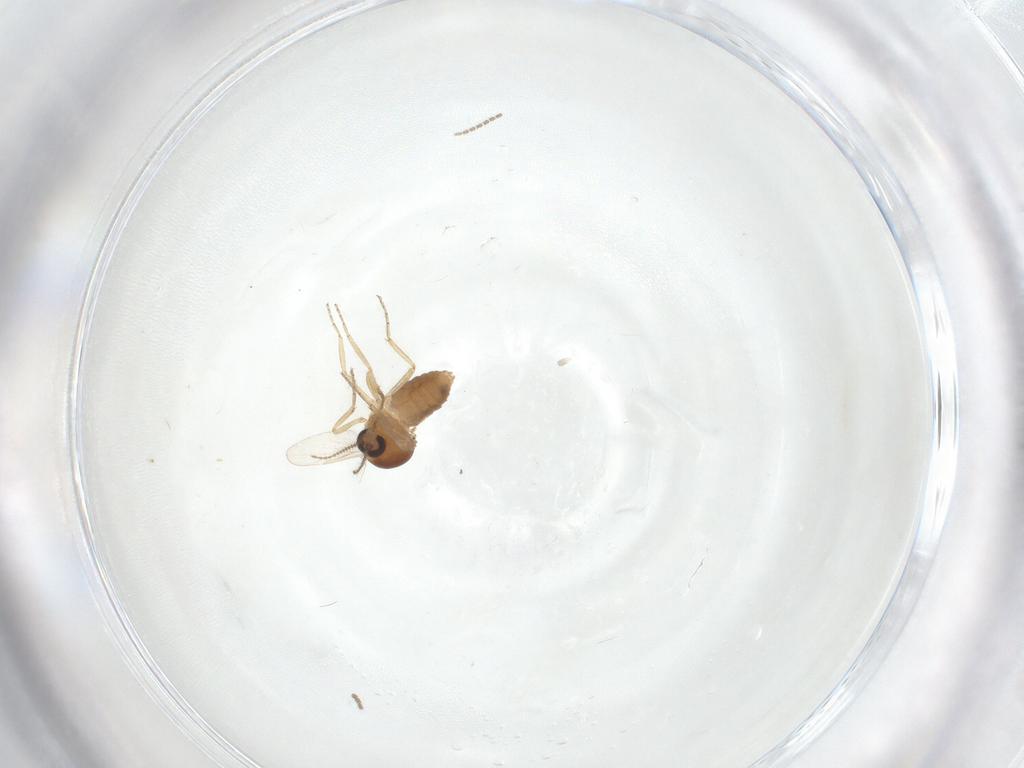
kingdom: Animalia
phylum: Arthropoda
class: Insecta
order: Diptera
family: Ceratopogonidae
